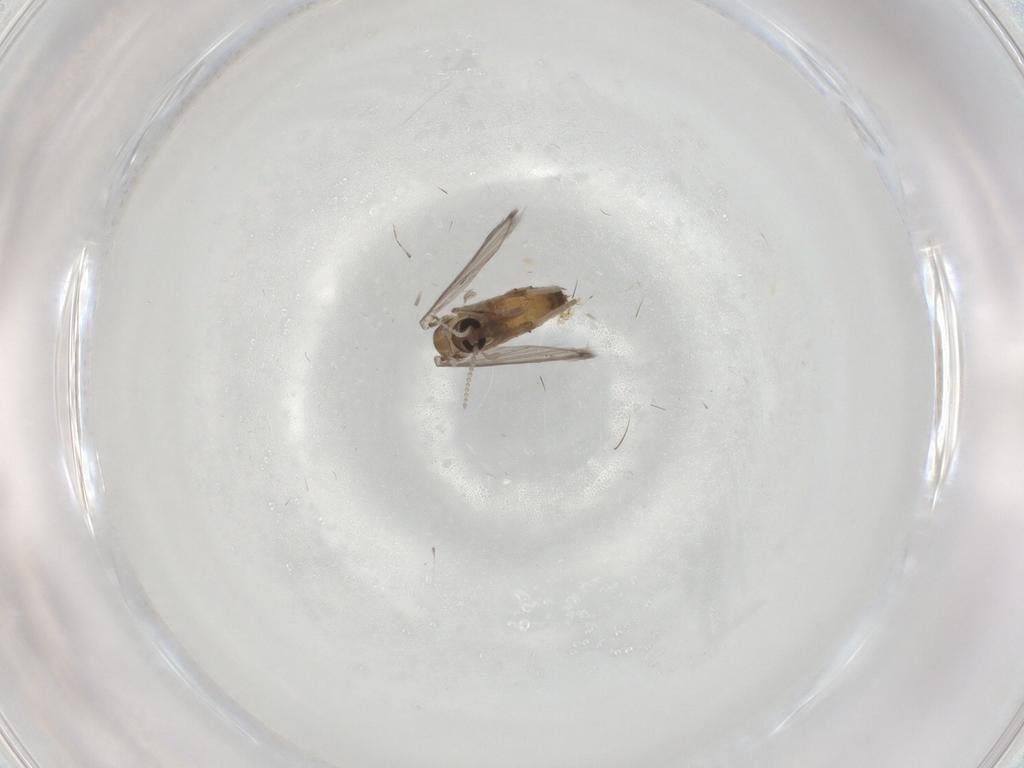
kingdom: Animalia
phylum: Arthropoda
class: Insecta
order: Diptera
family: Psychodidae
